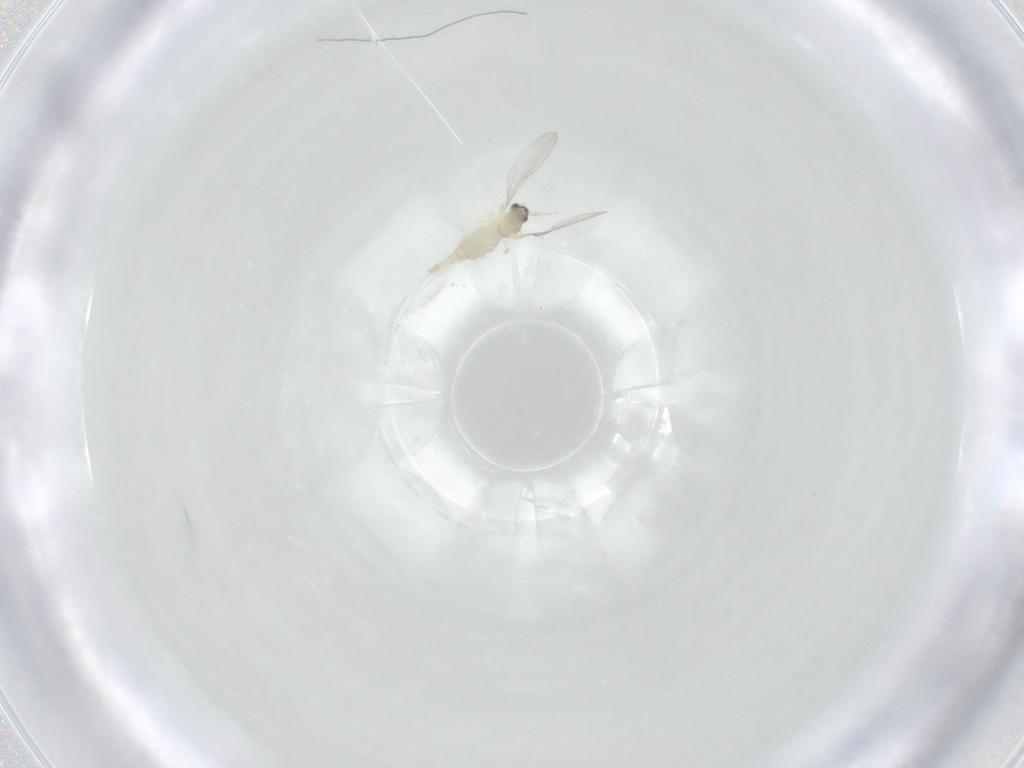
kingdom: Animalia
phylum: Arthropoda
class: Insecta
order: Diptera
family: Cecidomyiidae
